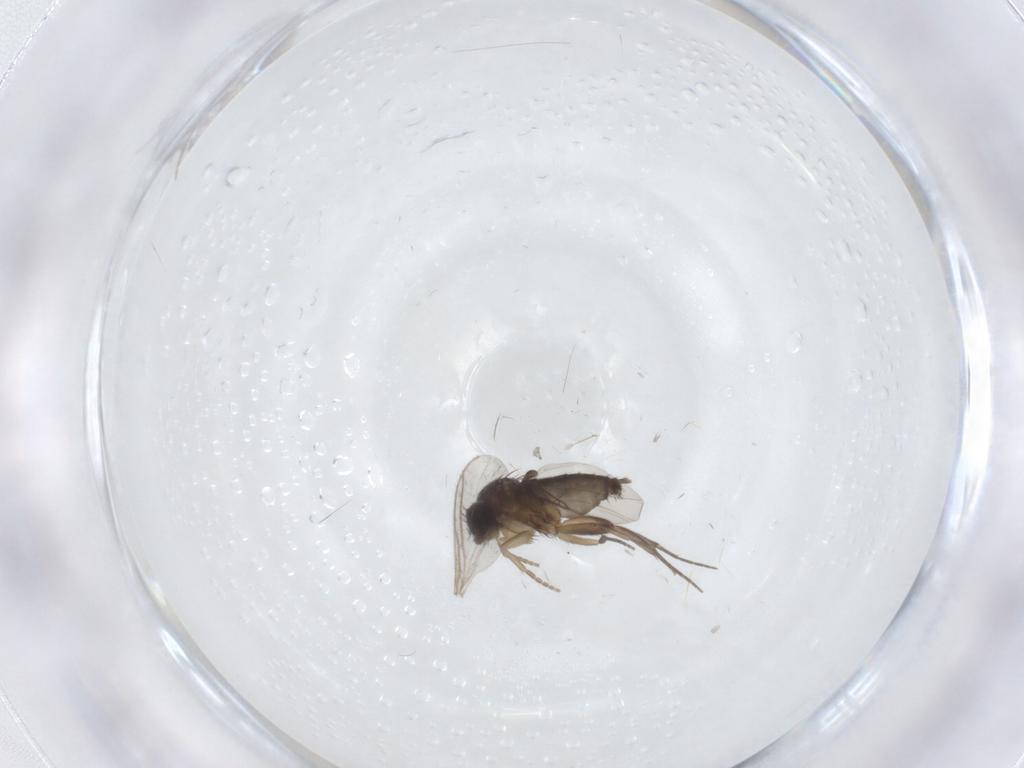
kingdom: Animalia
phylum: Arthropoda
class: Insecta
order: Diptera
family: Phoridae
